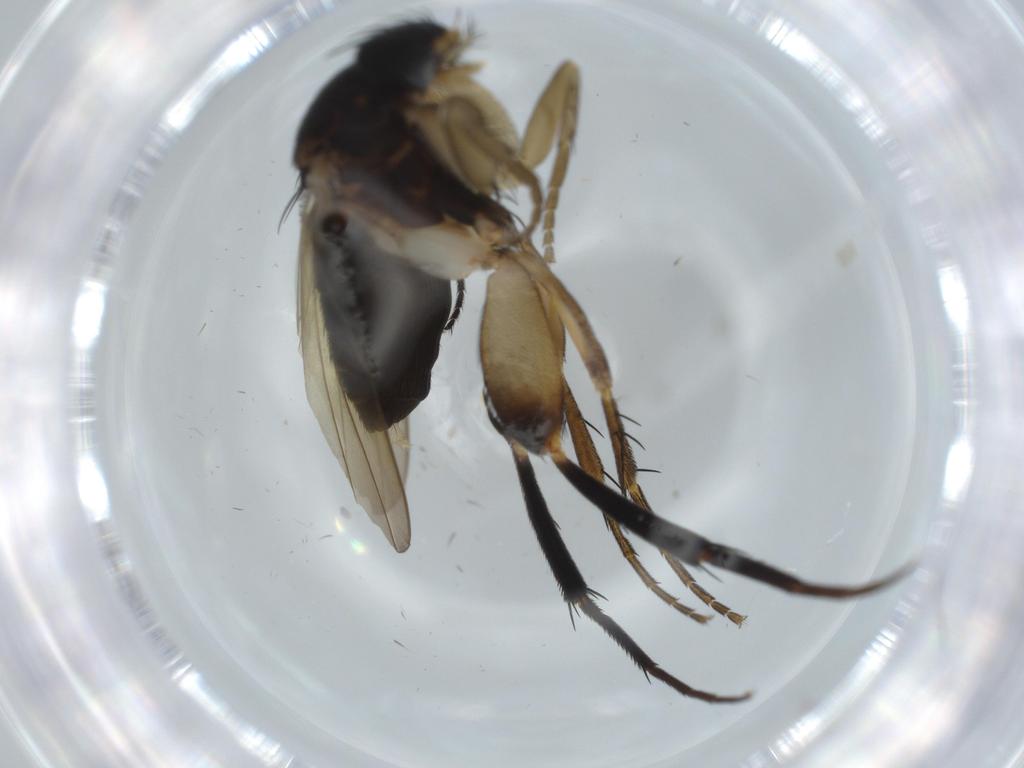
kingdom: Animalia
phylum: Arthropoda
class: Insecta
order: Diptera
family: Phoridae
